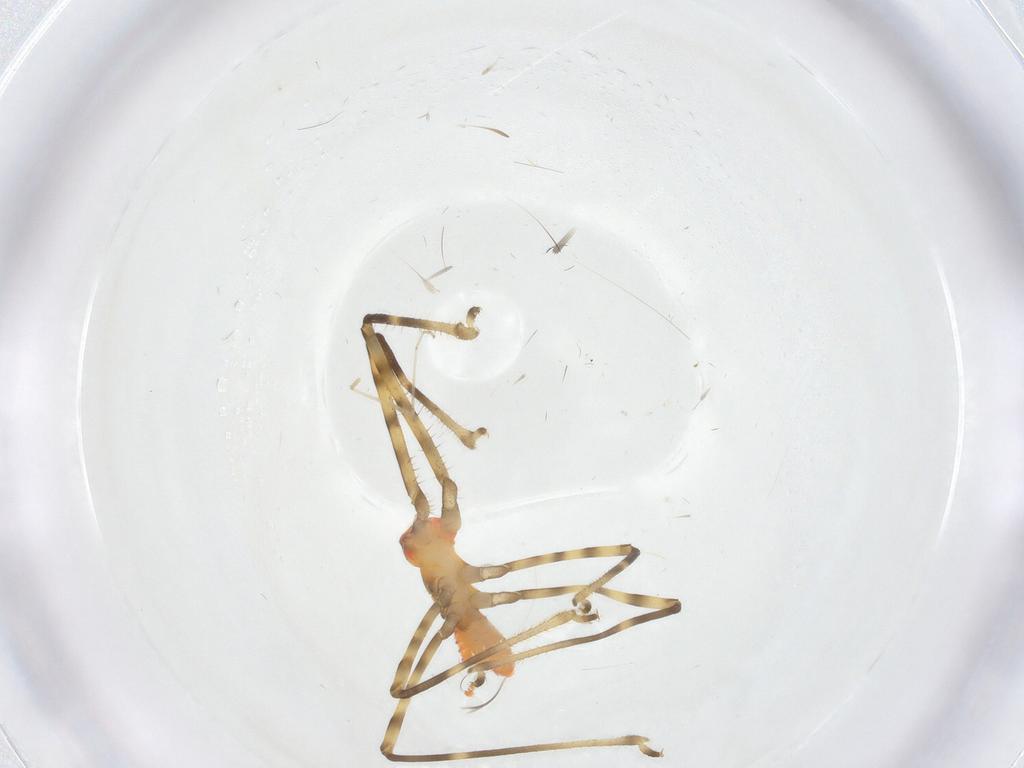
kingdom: Animalia
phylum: Arthropoda
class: Insecta
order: Hemiptera
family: Reduviidae
